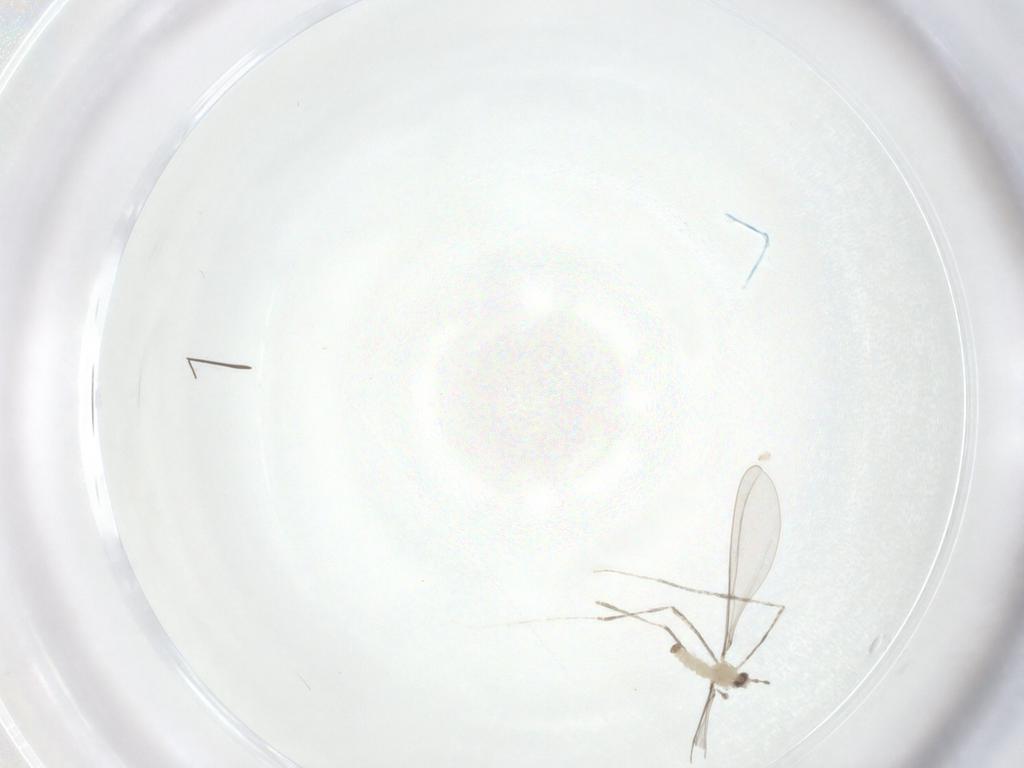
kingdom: Animalia
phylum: Arthropoda
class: Insecta
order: Diptera
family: Cecidomyiidae
